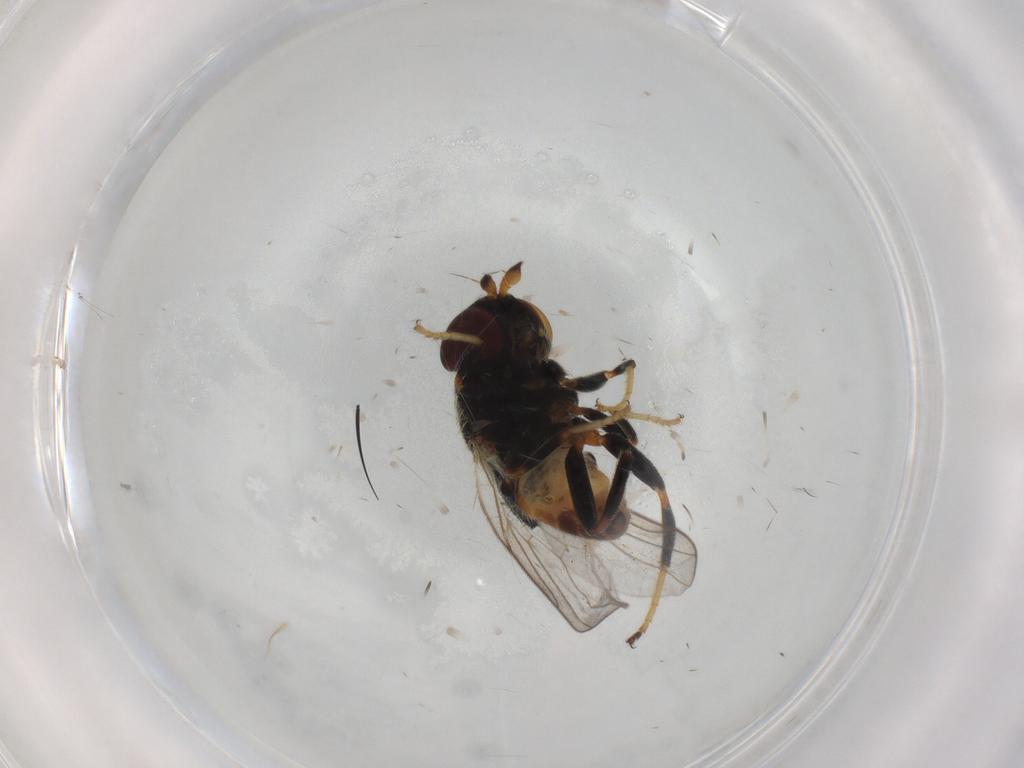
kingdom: Animalia
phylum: Arthropoda
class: Insecta
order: Diptera
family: Chloropidae
